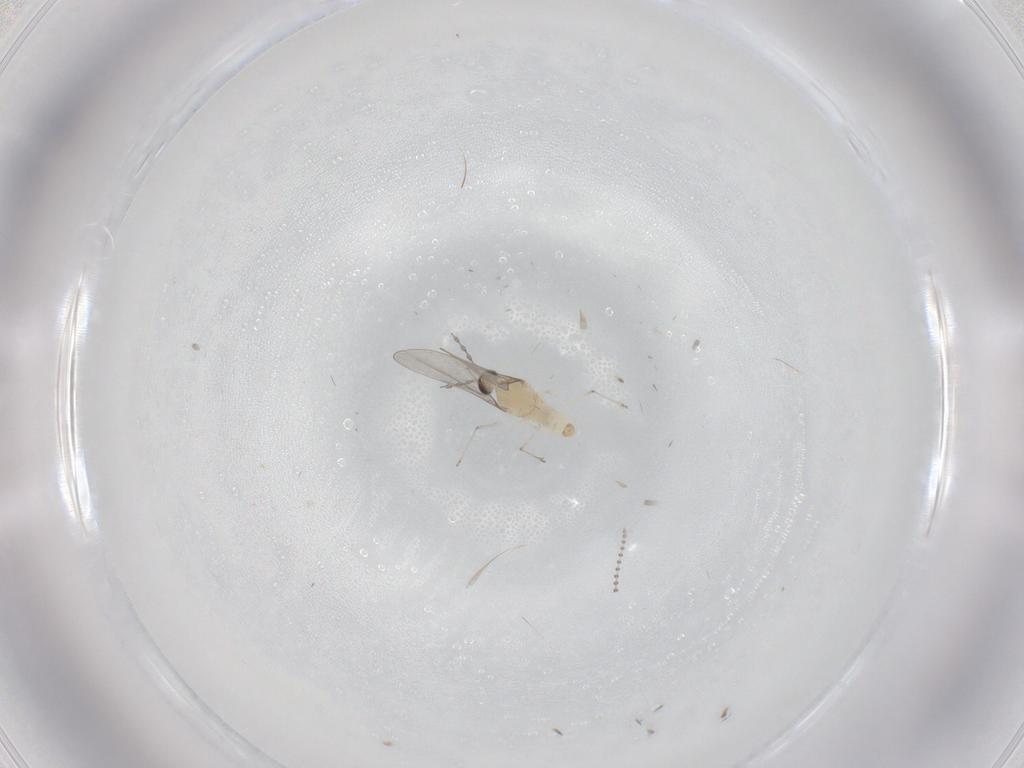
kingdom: Animalia
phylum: Arthropoda
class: Insecta
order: Diptera
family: Cecidomyiidae
